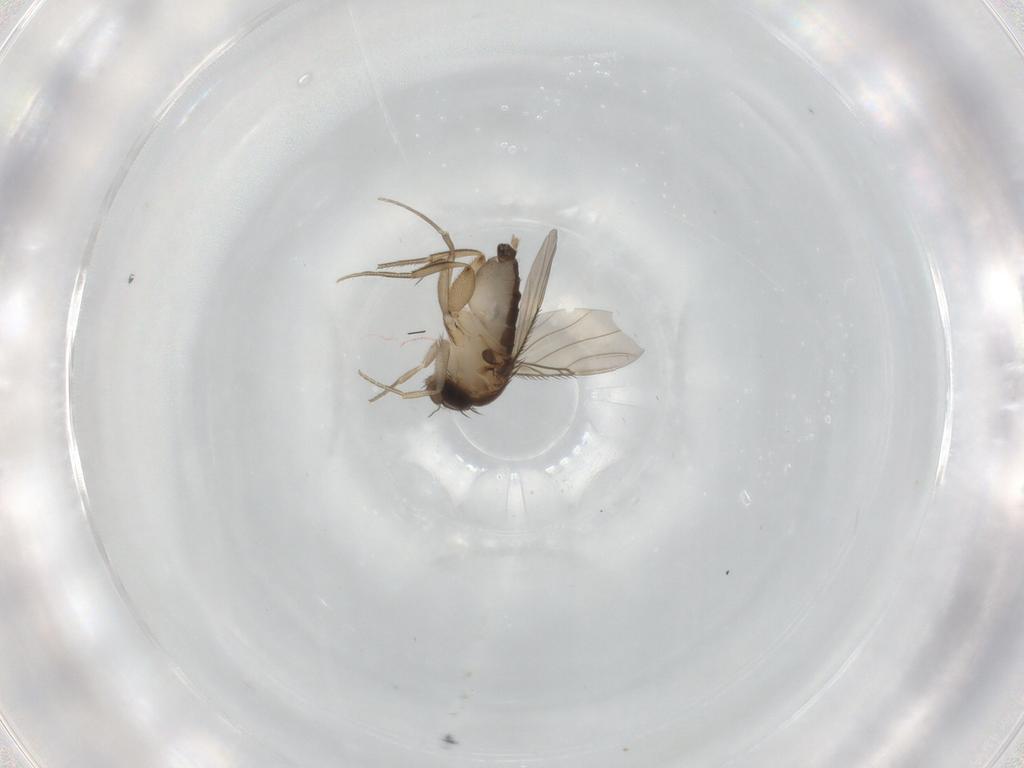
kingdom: Animalia
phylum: Arthropoda
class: Insecta
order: Diptera
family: Phoridae
